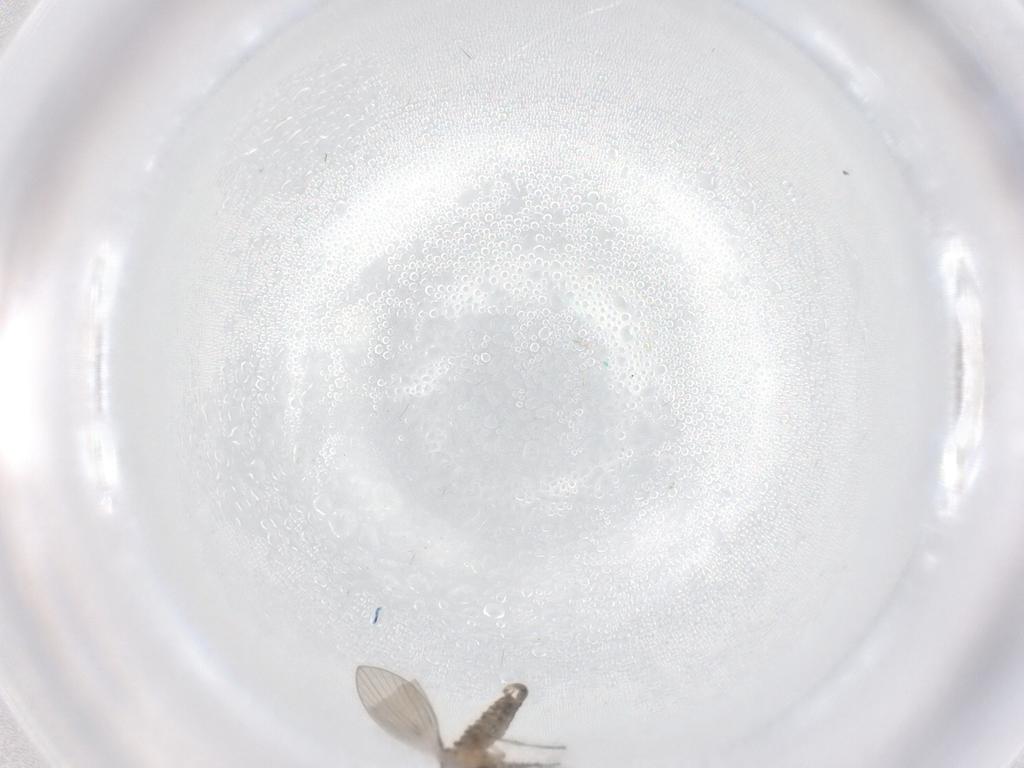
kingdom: Animalia
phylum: Arthropoda
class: Insecta
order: Diptera
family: Psychodidae
